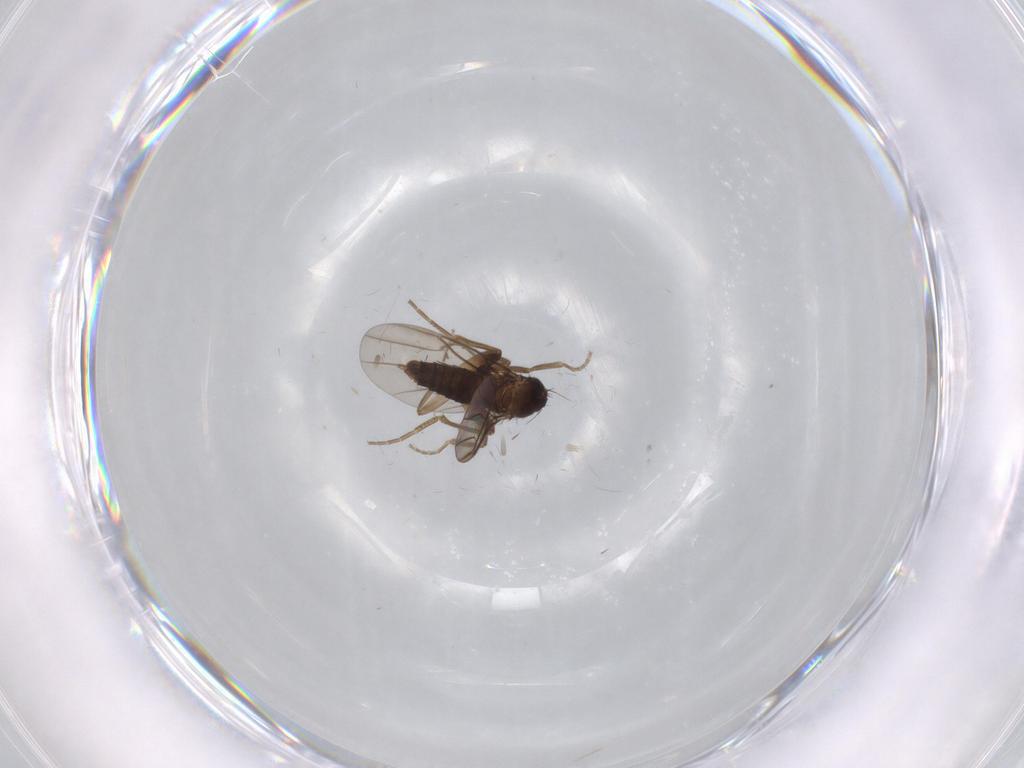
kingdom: Animalia
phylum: Arthropoda
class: Insecta
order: Diptera
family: Phoridae
